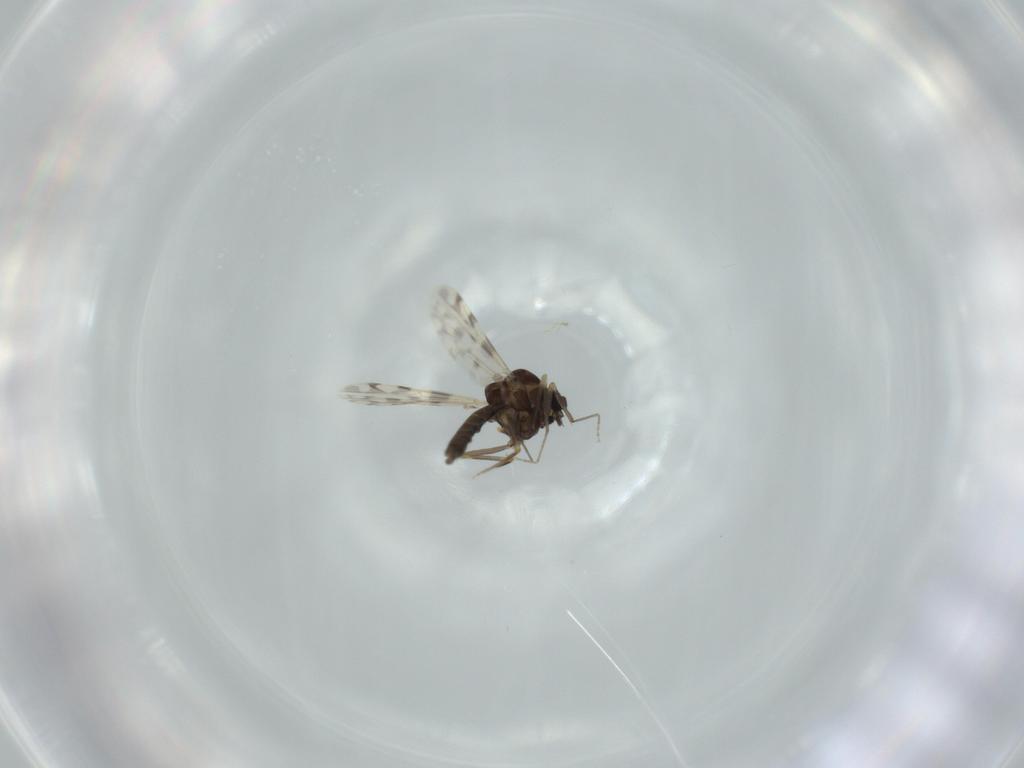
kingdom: Animalia
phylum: Arthropoda
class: Insecta
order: Diptera
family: Ceratopogonidae
